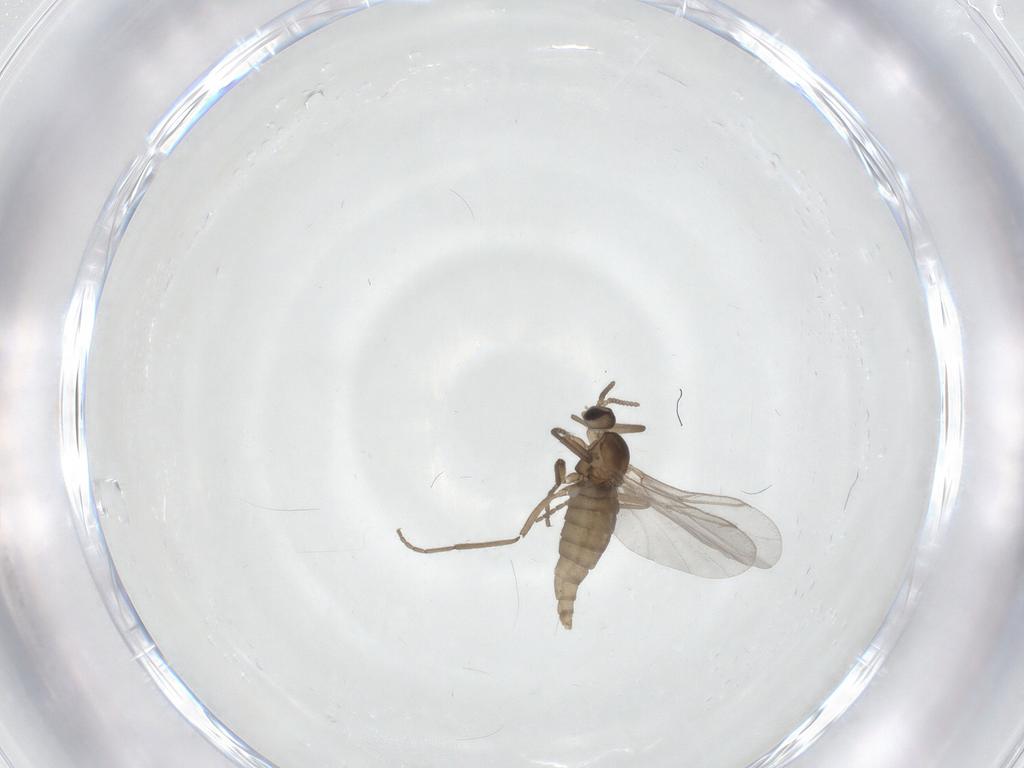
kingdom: Animalia
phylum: Arthropoda
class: Insecta
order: Diptera
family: Cecidomyiidae
